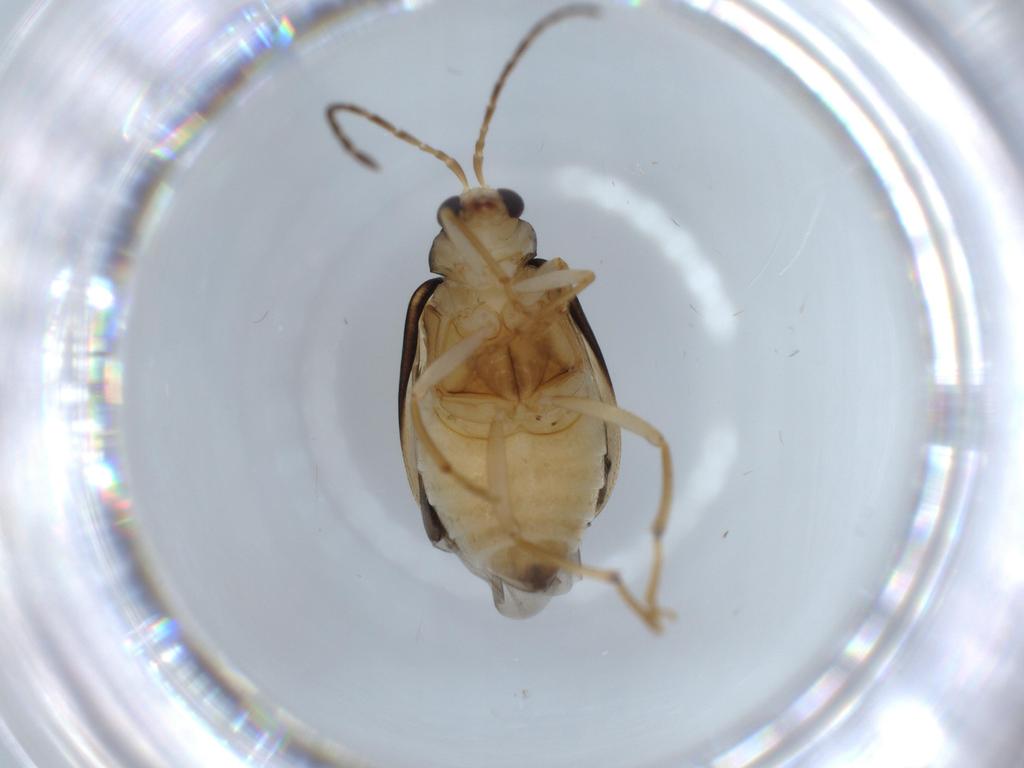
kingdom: Animalia
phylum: Arthropoda
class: Insecta
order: Coleoptera
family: Chrysomelidae
